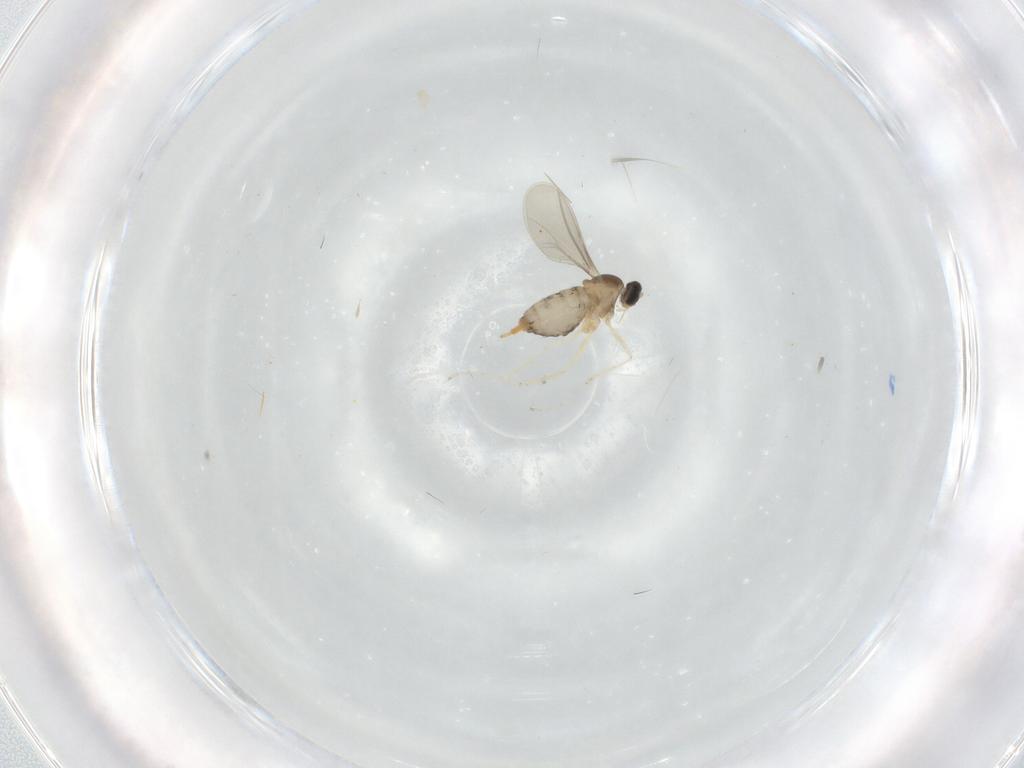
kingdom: Animalia
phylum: Arthropoda
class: Insecta
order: Diptera
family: Cecidomyiidae
